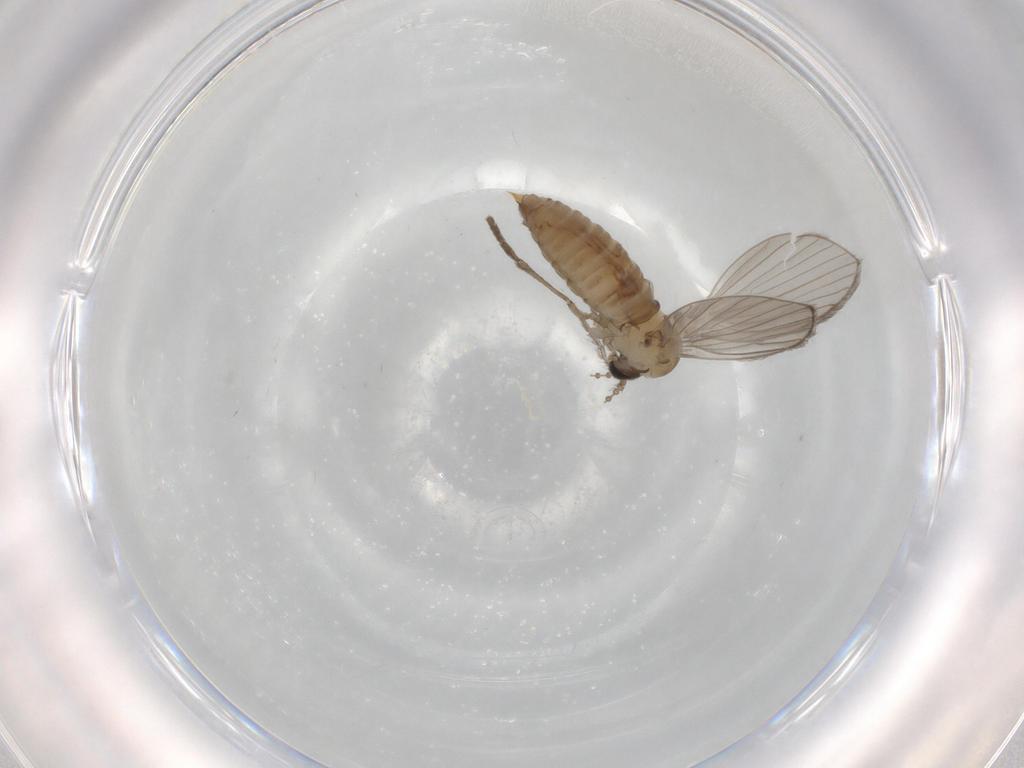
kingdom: Animalia
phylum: Arthropoda
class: Insecta
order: Diptera
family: Psychodidae
